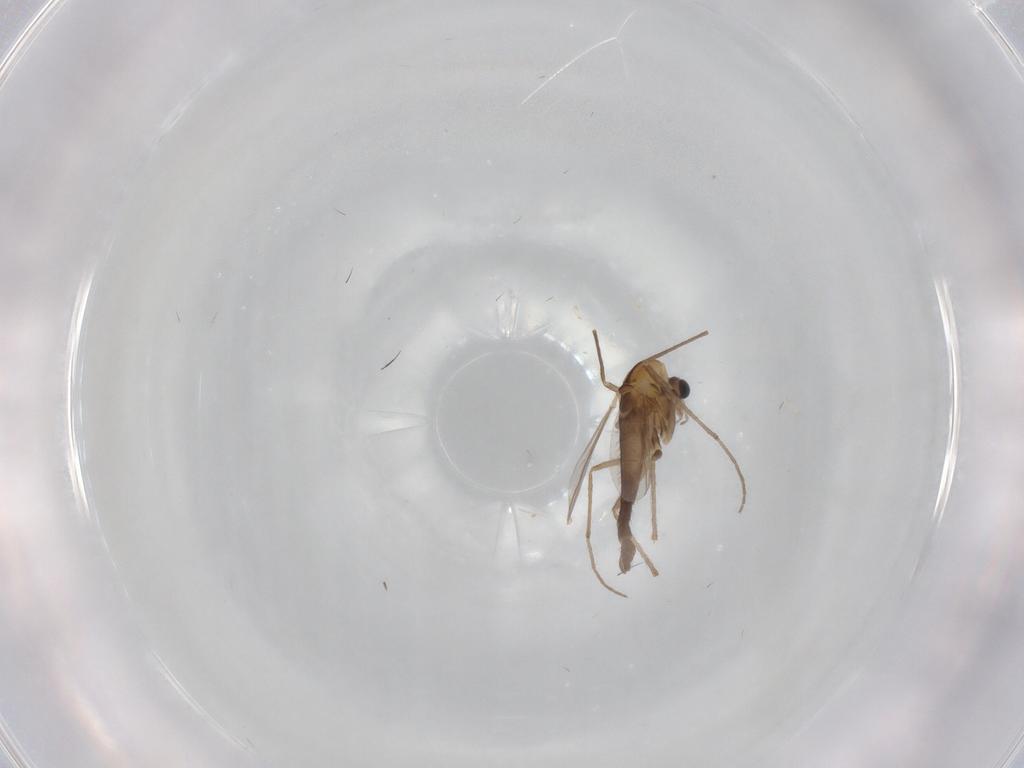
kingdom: Animalia
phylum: Arthropoda
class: Insecta
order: Diptera
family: Chironomidae
